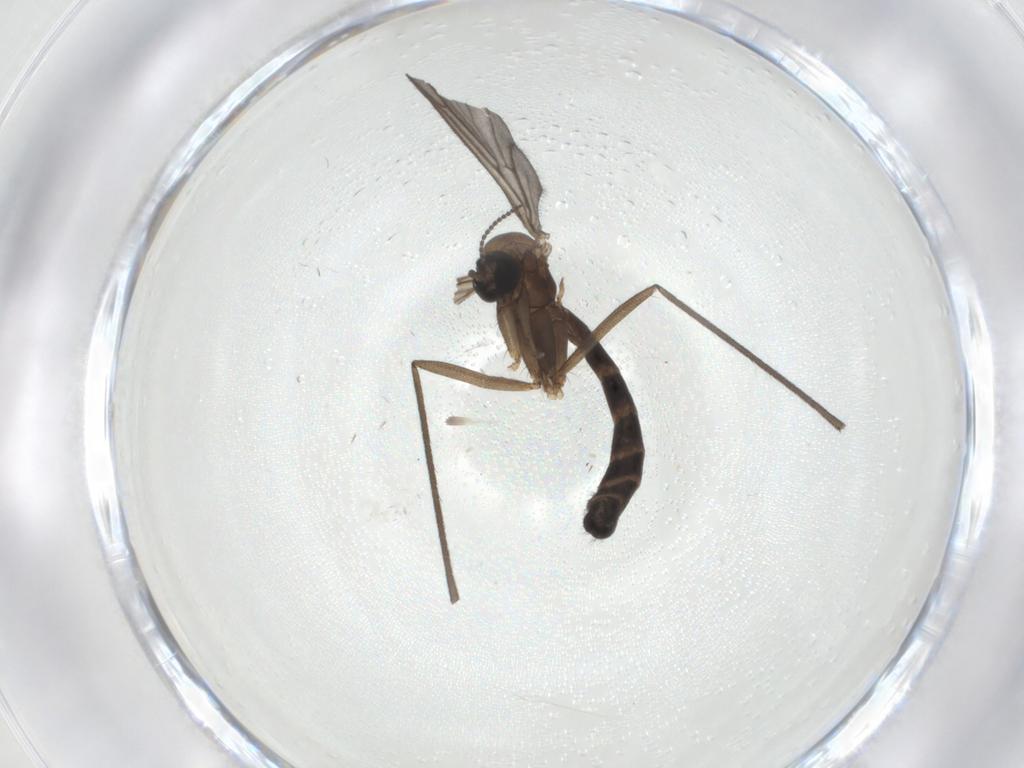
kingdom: Animalia
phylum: Arthropoda
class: Insecta
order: Diptera
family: Keroplatidae
